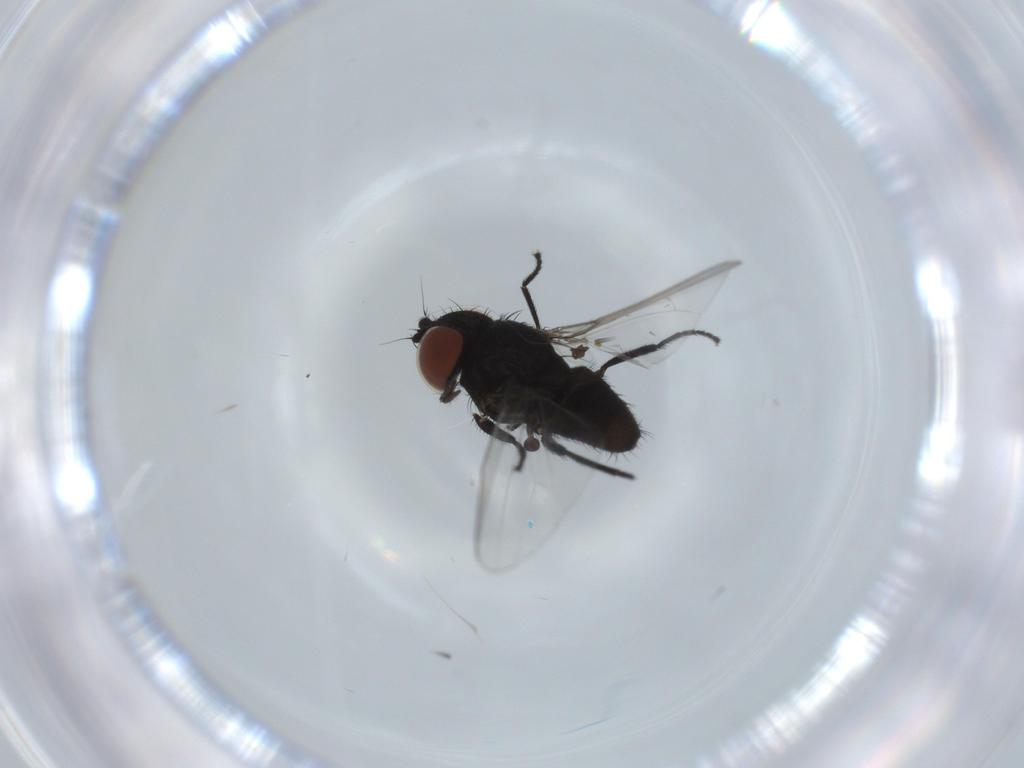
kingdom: Animalia
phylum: Arthropoda
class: Insecta
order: Diptera
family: Milichiidae
